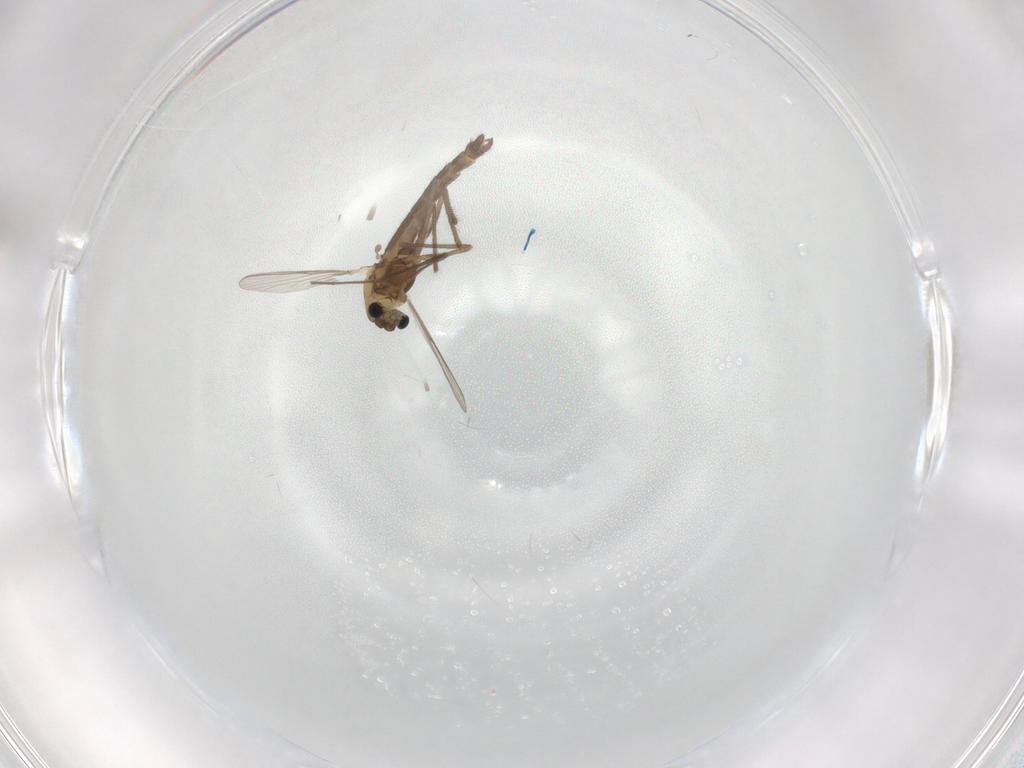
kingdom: Animalia
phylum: Arthropoda
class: Insecta
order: Diptera
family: Chironomidae
